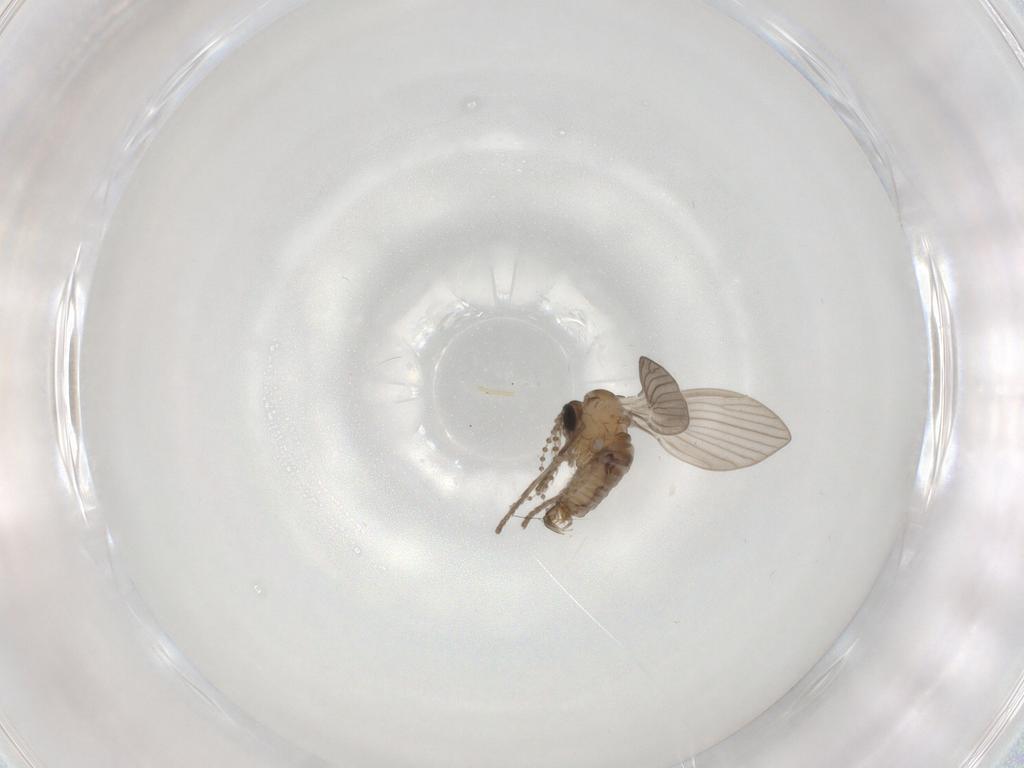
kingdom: Animalia
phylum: Arthropoda
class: Insecta
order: Diptera
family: Psychodidae
